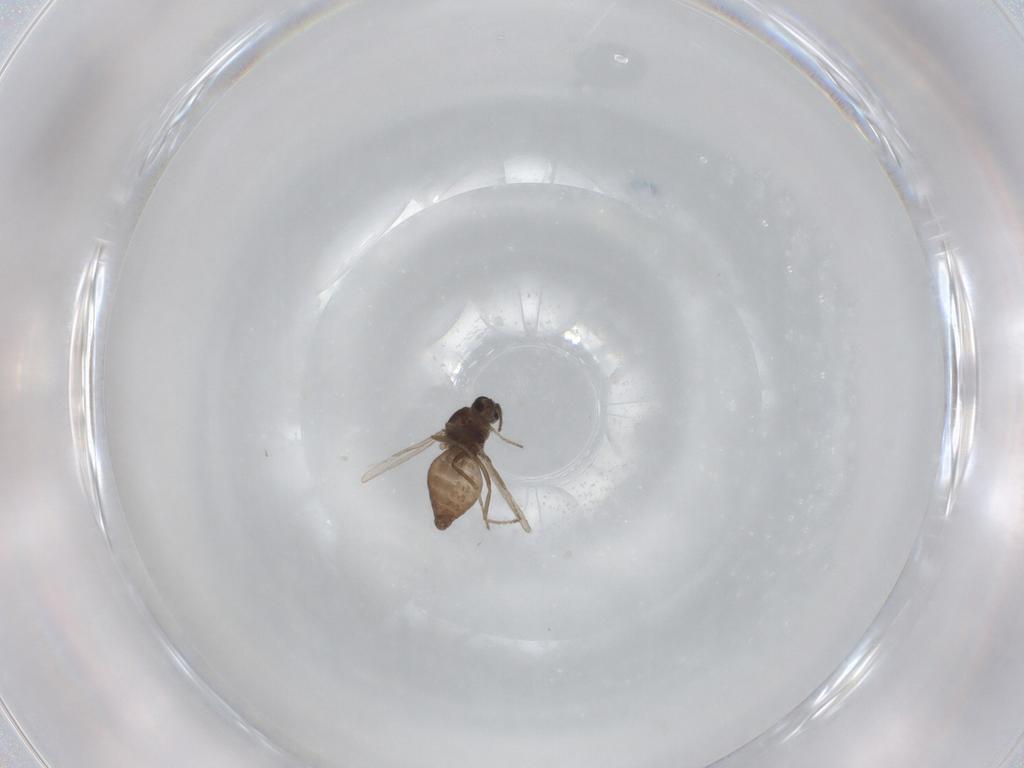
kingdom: Animalia
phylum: Arthropoda
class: Insecta
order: Diptera
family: Ceratopogonidae
